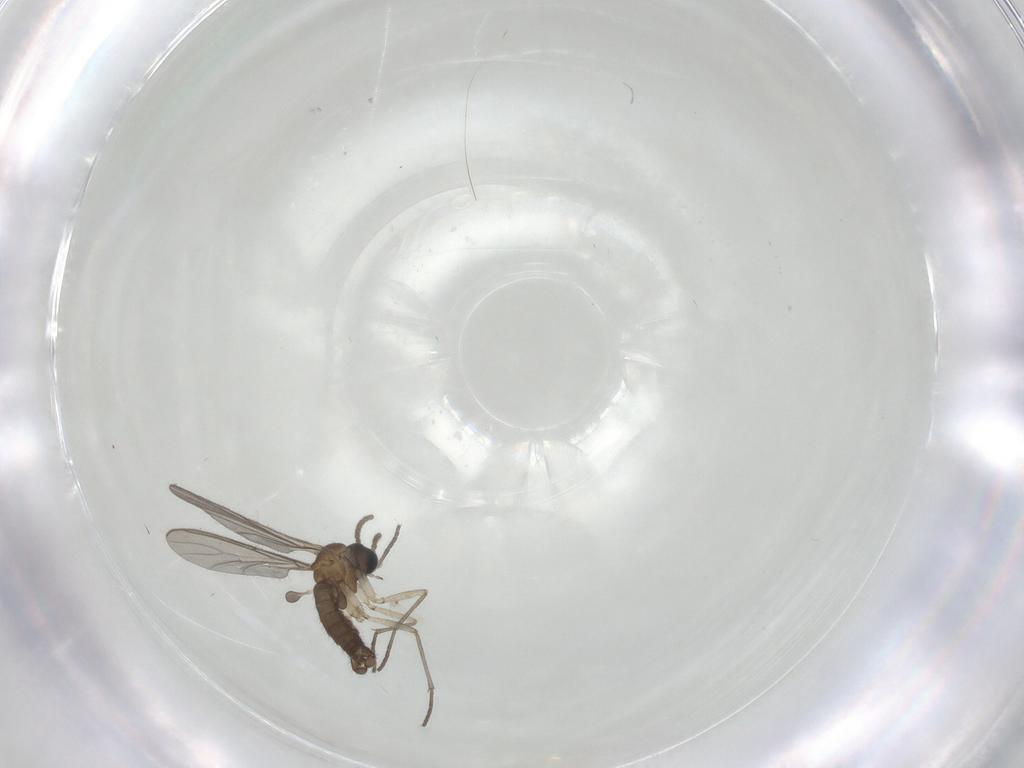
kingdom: Animalia
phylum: Arthropoda
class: Insecta
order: Diptera
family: Sciaridae
